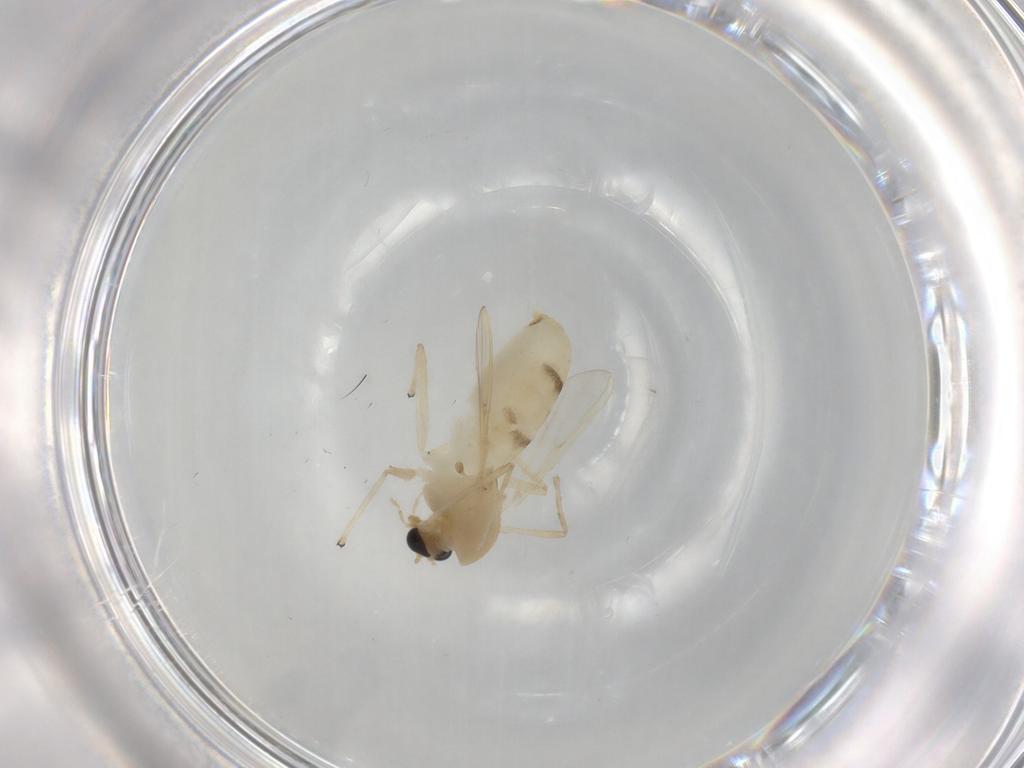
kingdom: Animalia
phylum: Arthropoda
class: Insecta
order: Diptera
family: Chironomidae
